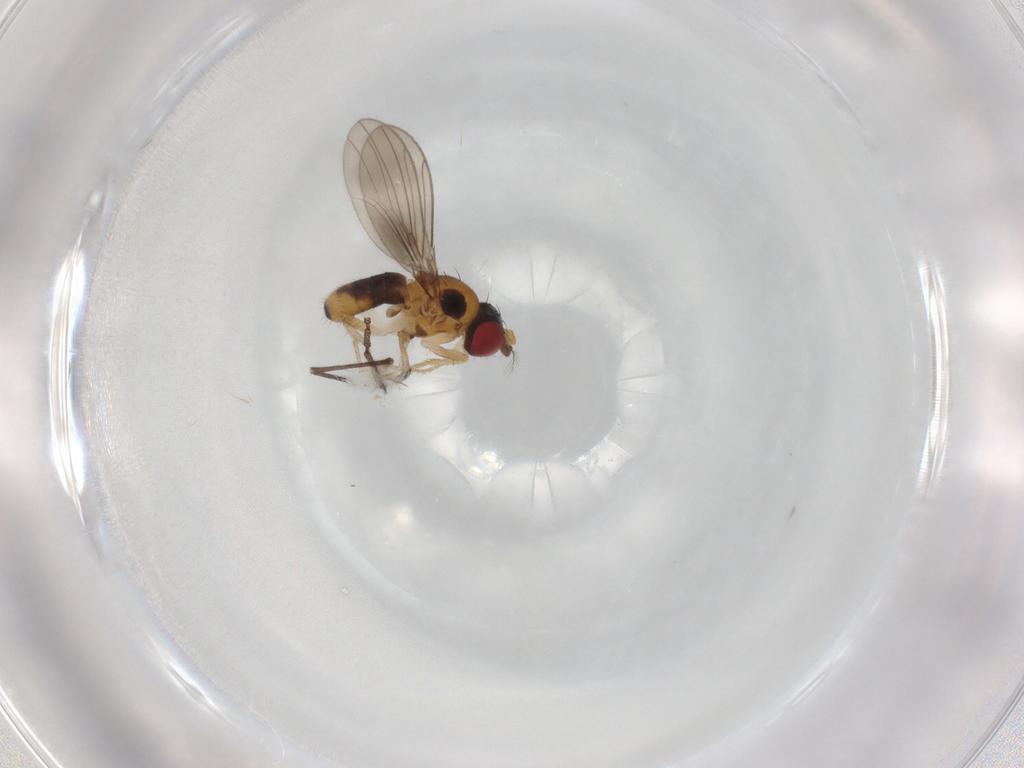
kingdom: Animalia
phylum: Arthropoda
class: Insecta
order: Diptera
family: Drosophilidae
